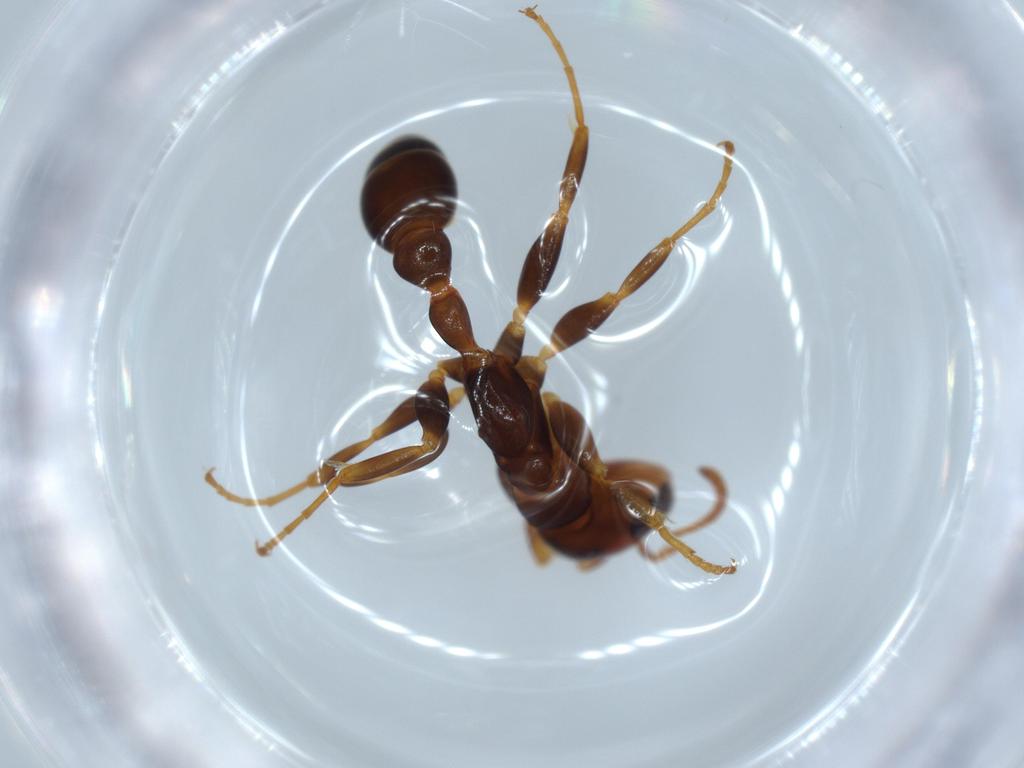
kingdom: Animalia
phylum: Arthropoda
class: Insecta
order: Hymenoptera
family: Formicidae
